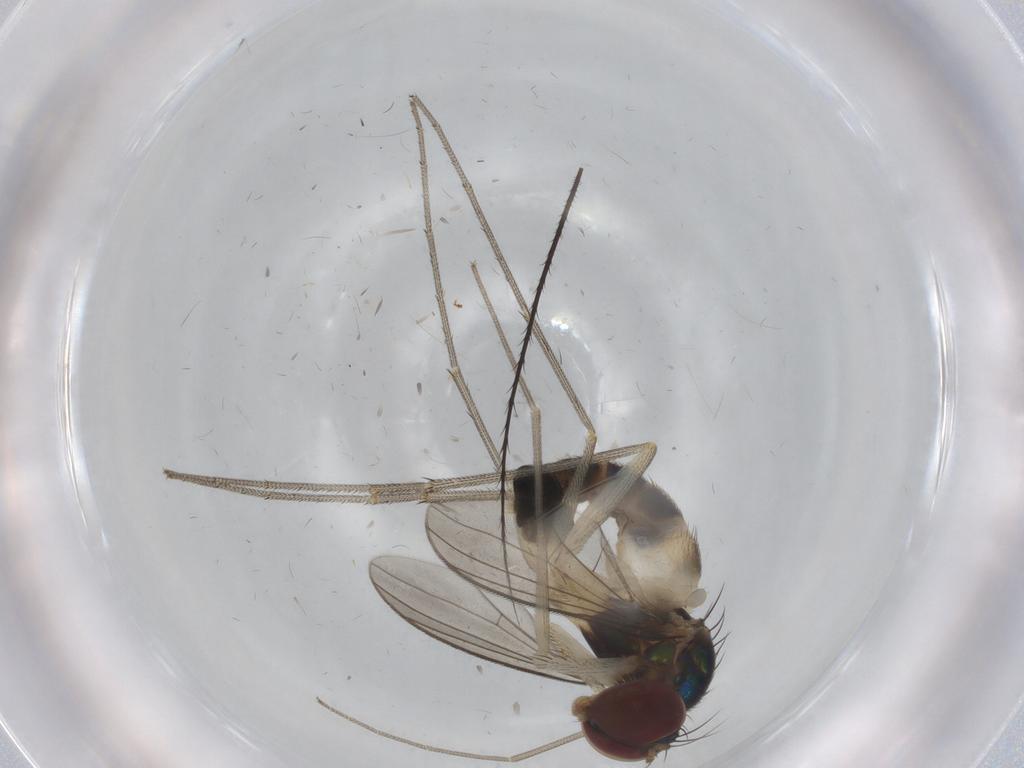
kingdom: Animalia
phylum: Arthropoda
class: Insecta
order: Diptera
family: Dolichopodidae
